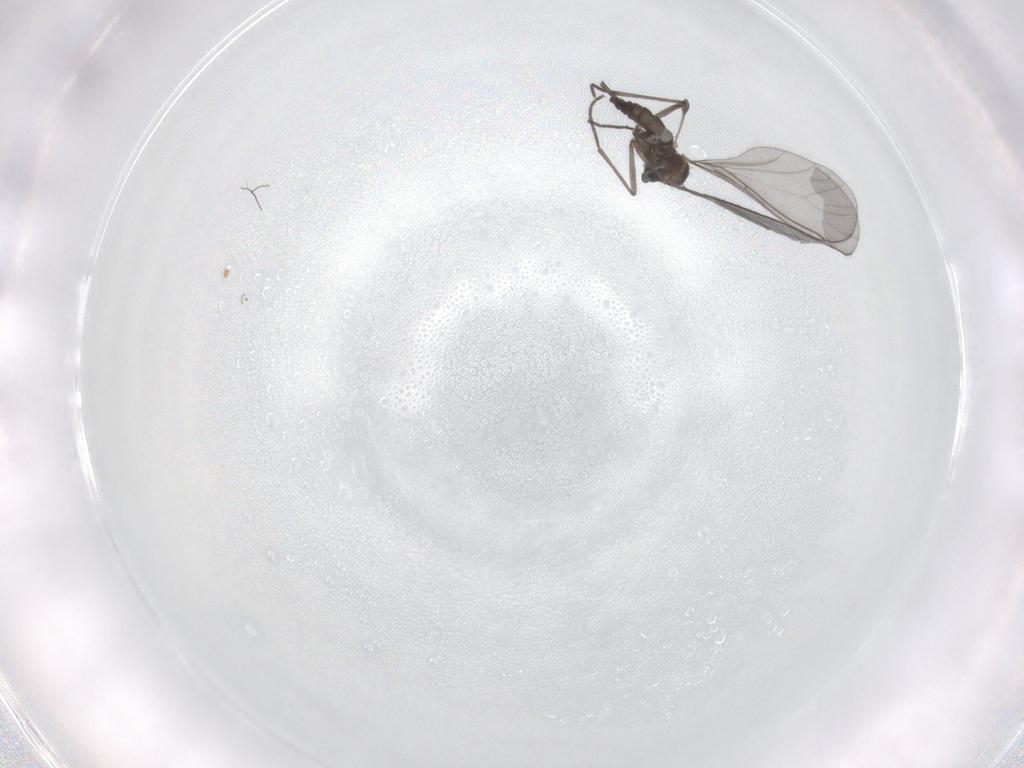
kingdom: Animalia
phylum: Arthropoda
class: Insecta
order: Diptera
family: Sciaridae
